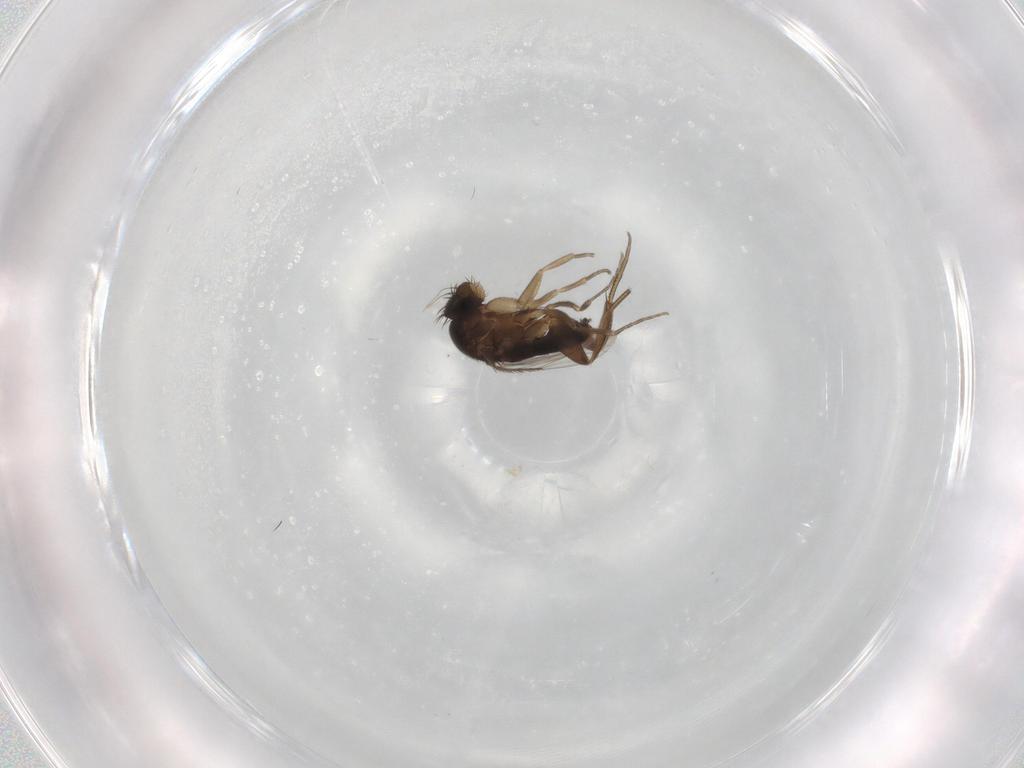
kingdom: Animalia
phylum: Arthropoda
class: Insecta
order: Diptera
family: Phoridae
